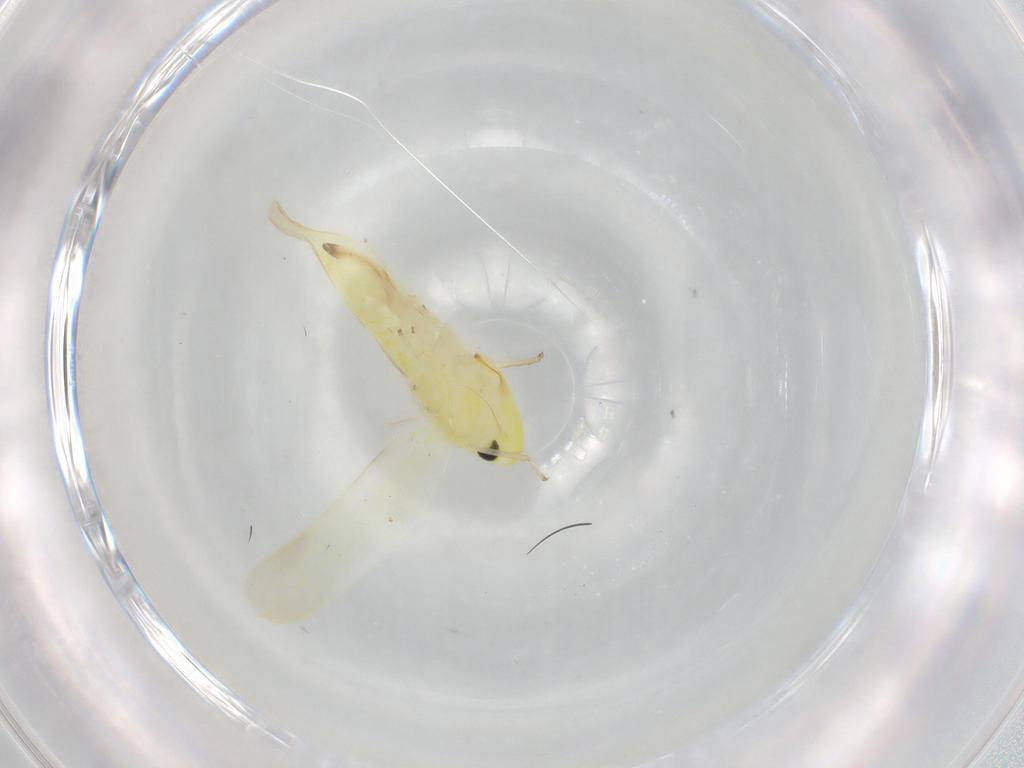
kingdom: Animalia
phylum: Arthropoda
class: Insecta
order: Hemiptera
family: Cicadellidae
